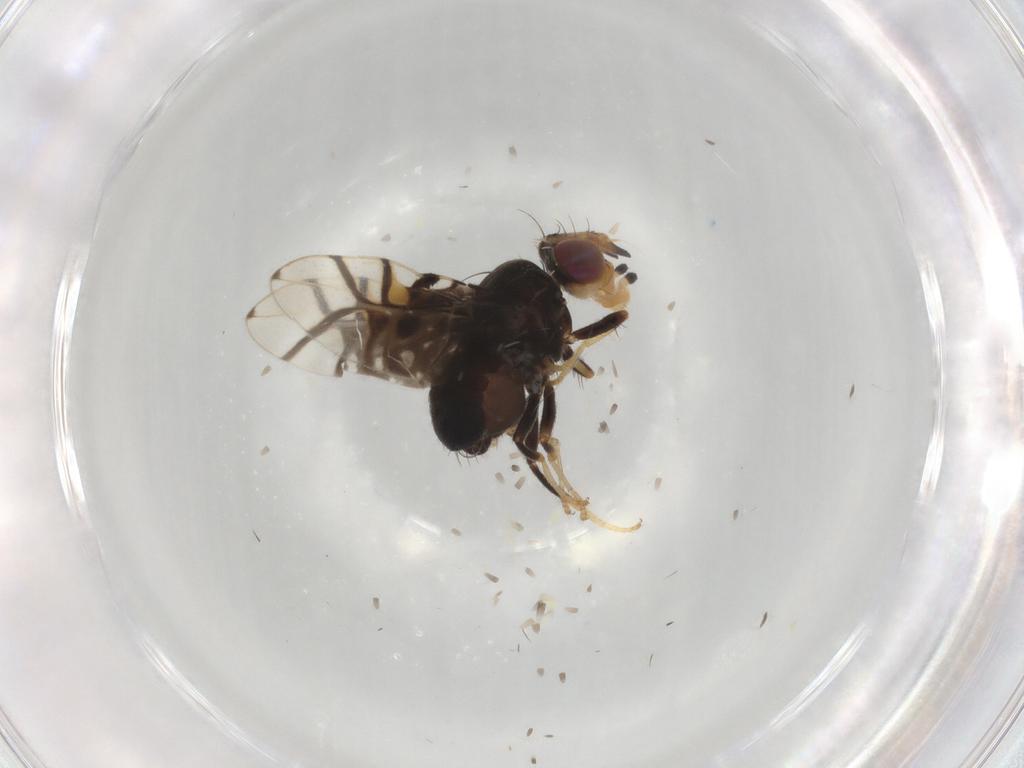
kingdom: Animalia
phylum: Arthropoda
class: Insecta
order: Diptera
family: Tephritidae
